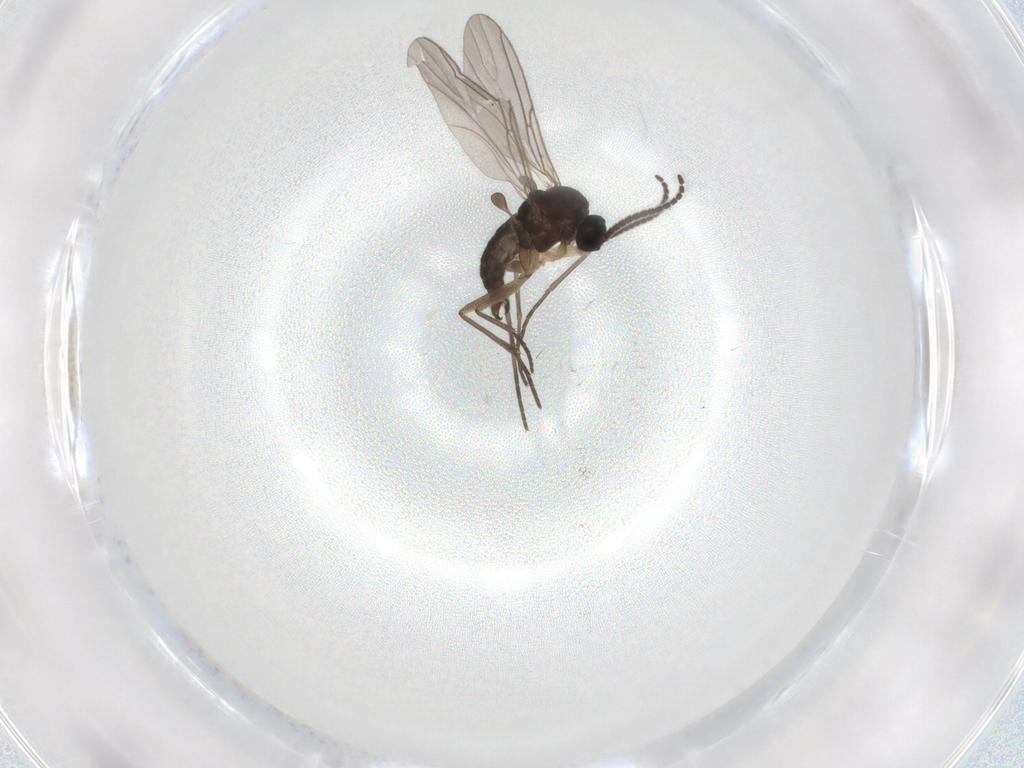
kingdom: Animalia
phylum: Arthropoda
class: Insecta
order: Diptera
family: Sciaridae
